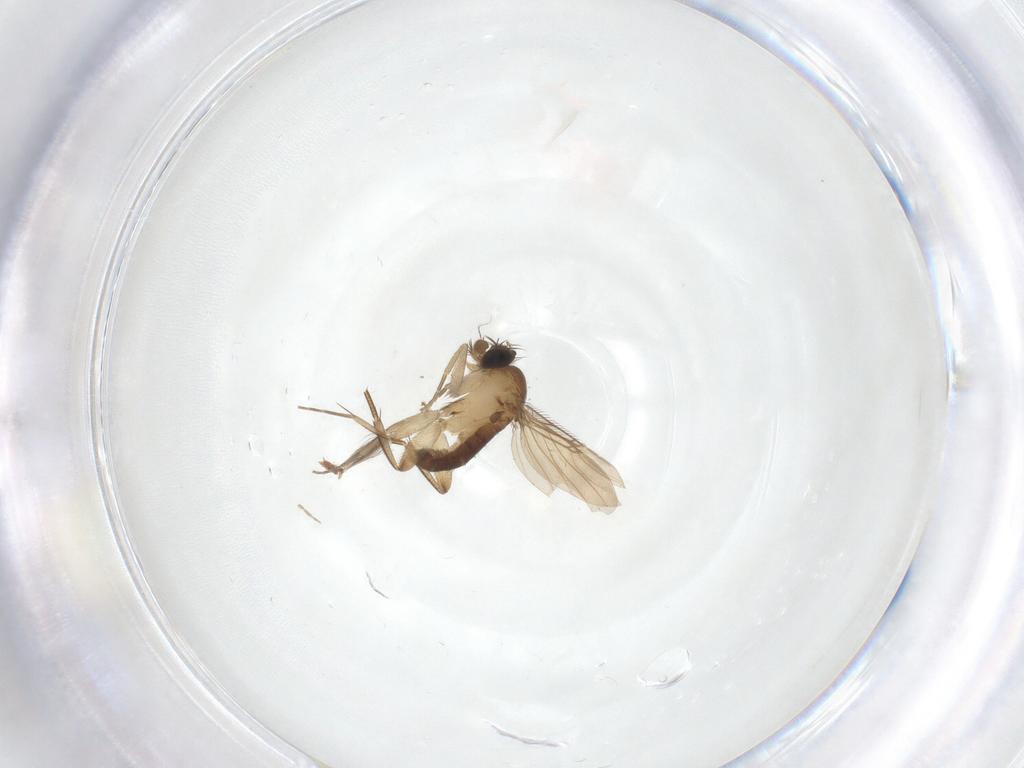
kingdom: Animalia
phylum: Arthropoda
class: Insecta
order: Diptera
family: Phoridae
